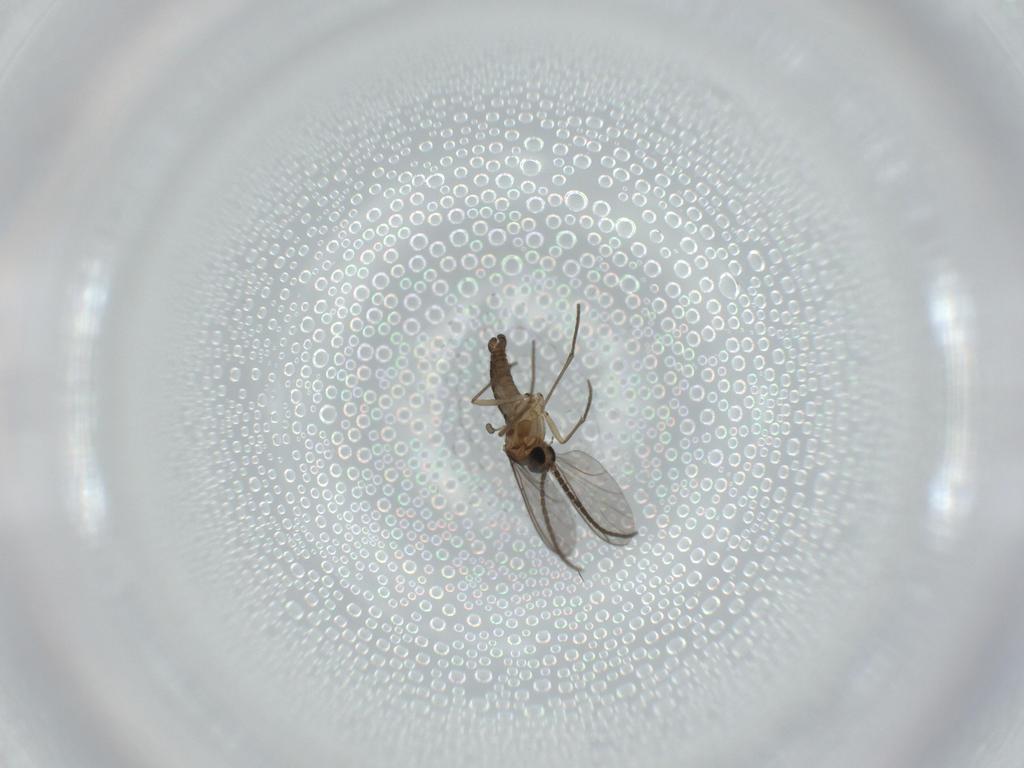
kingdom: Animalia
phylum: Arthropoda
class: Insecta
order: Diptera
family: Sciaridae
